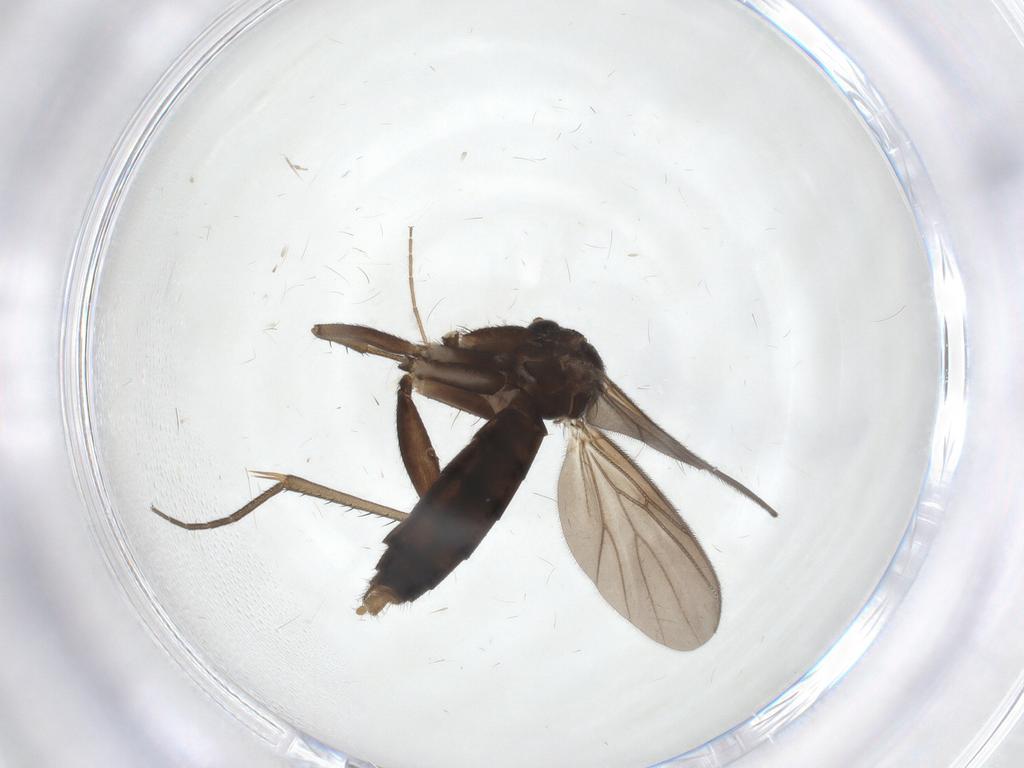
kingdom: Animalia
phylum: Arthropoda
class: Insecta
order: Diptera
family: Mycetophilidae
